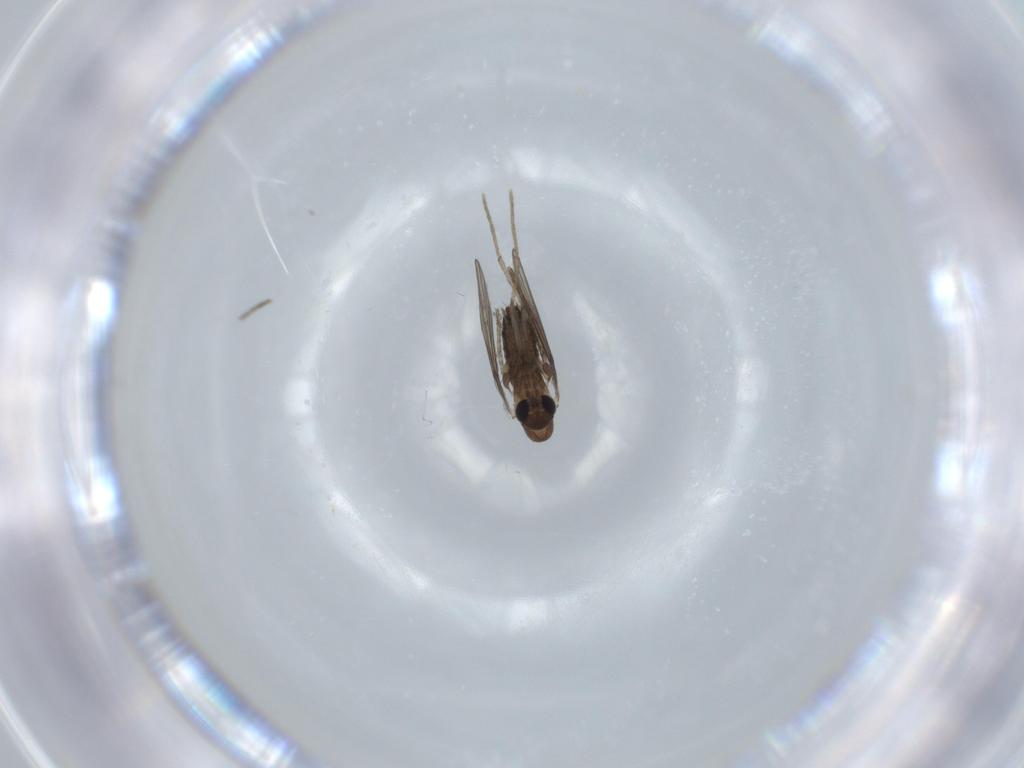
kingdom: Animalia
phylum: Arthropoda
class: Insecta
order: Diptera
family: Psychodidae
